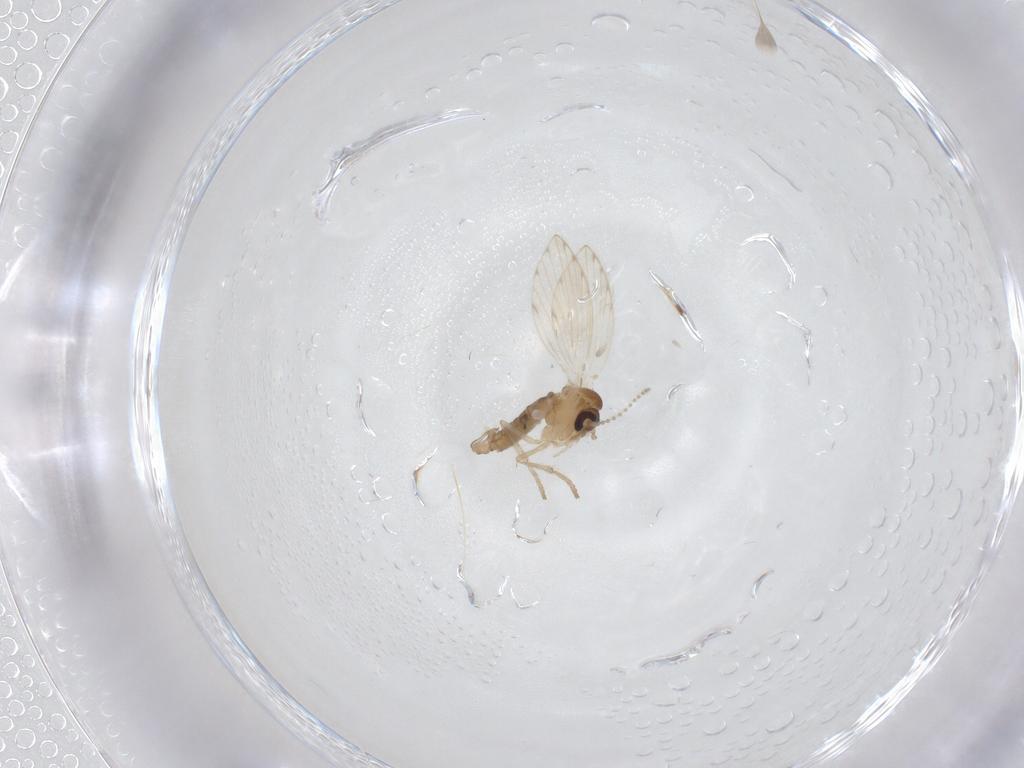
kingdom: Animalia
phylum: Arthropoda
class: Insecta
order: Diptera
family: Psychodidae
